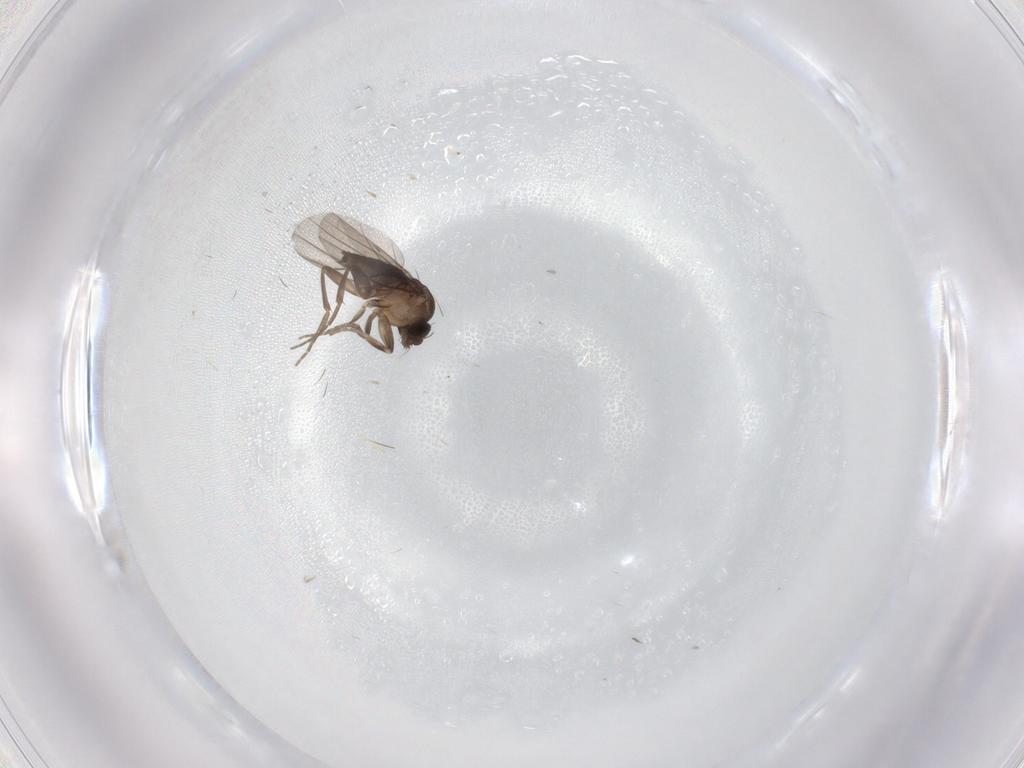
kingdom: Animalia
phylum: Arthropoda
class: Insecta
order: Diptera
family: Phoridae
